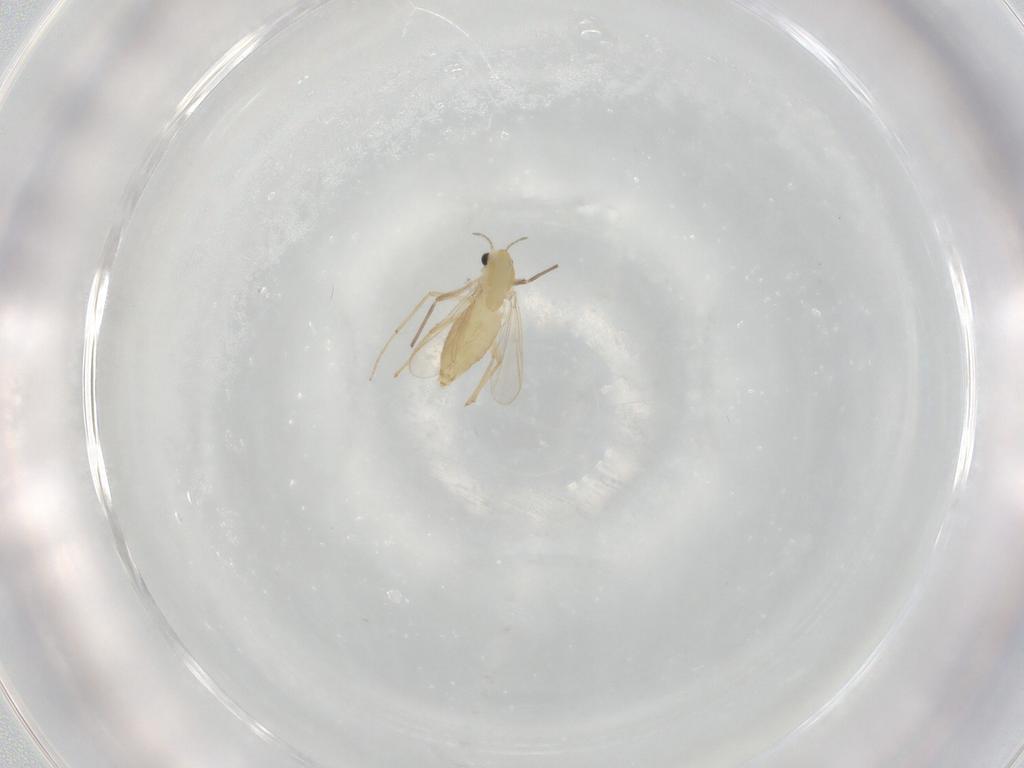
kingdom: Animalia
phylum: Arthropoda
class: Insecta
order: Diptera
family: Chironomidae
